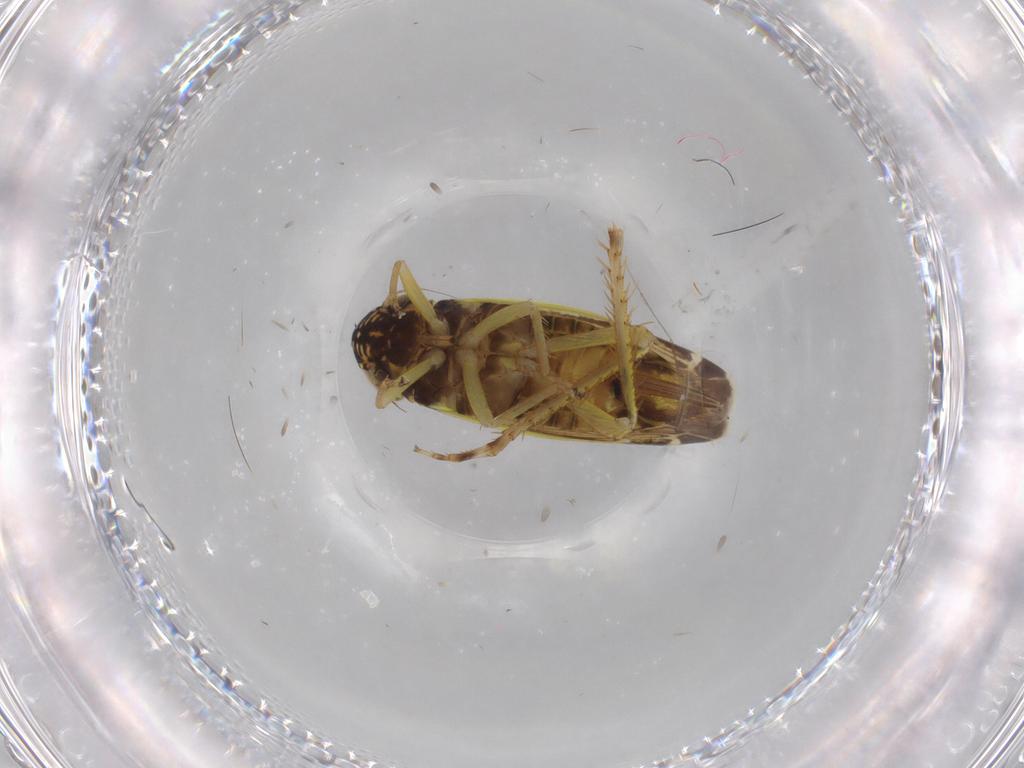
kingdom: Animalia
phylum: Arthropoda
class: Insecta
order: Hemiptera
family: Cicadellidae
